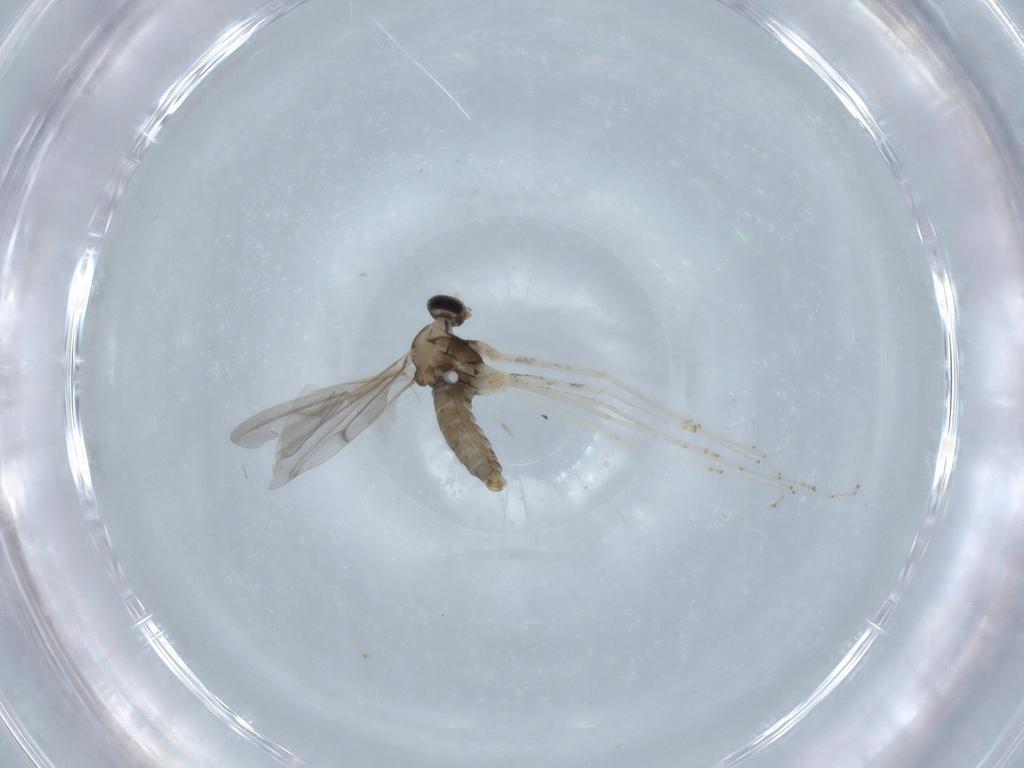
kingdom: Animalia
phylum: Arthropoda
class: Insecta
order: Diptera
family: Cecidomyiidae
